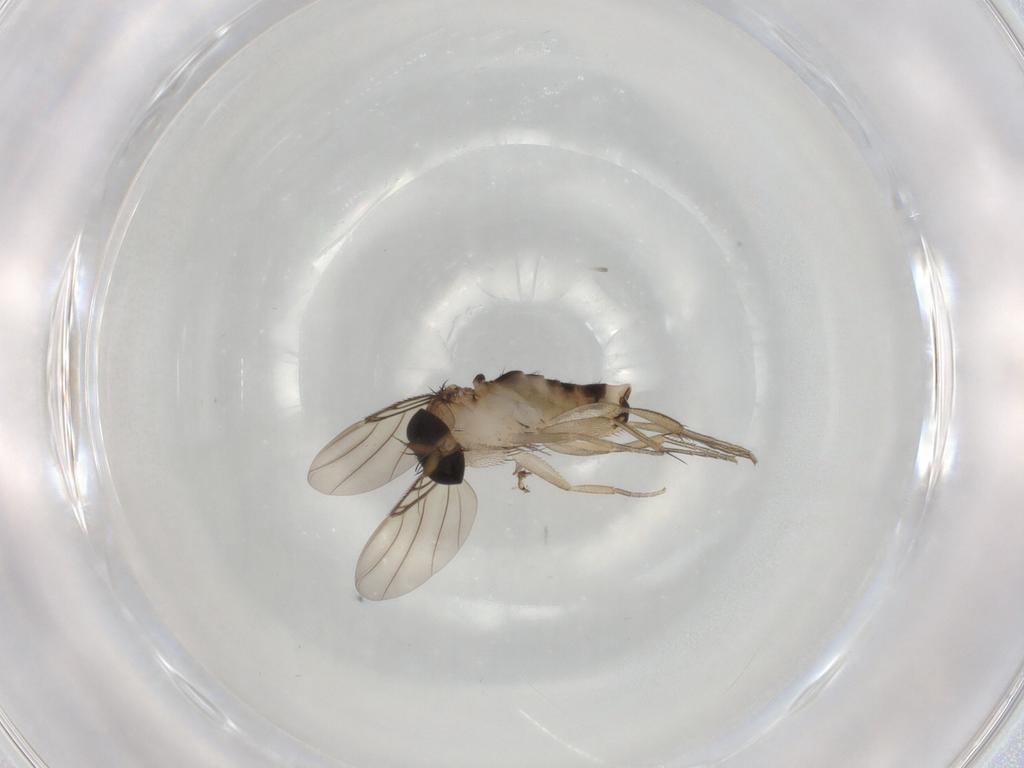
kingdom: Animalia
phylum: Arthropoda
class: Insecta
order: Diptera
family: Phoridae
